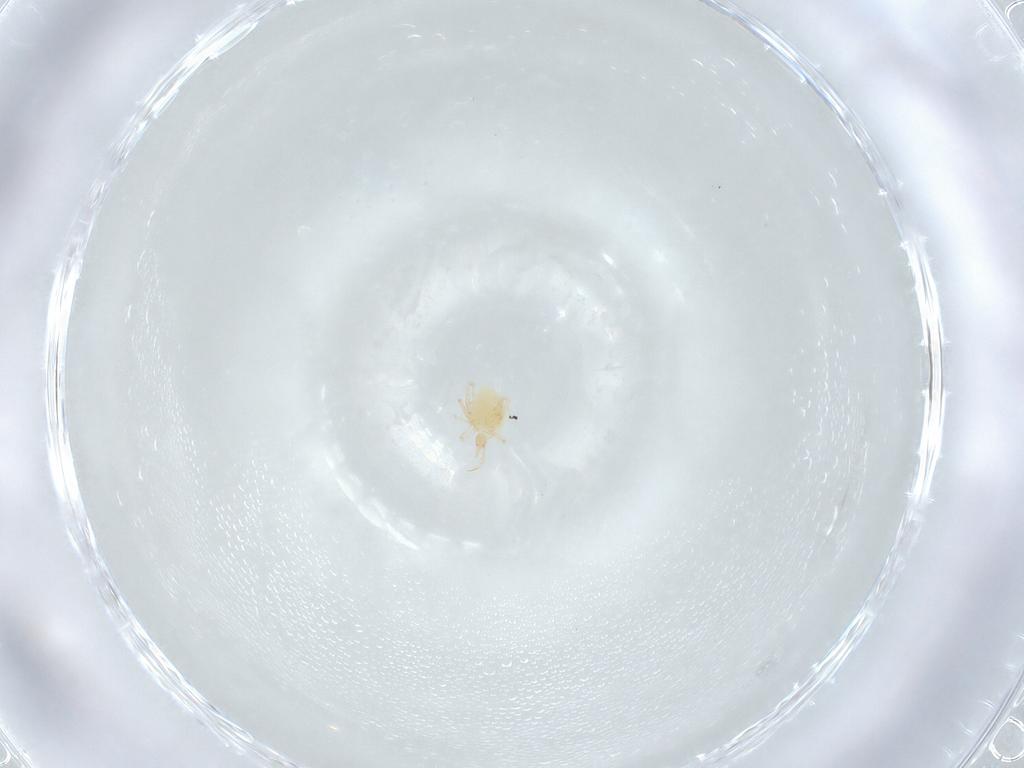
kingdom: Animalia
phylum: Arthropoda
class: Arachnida
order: Trombidiformes
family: Cunaxidae
